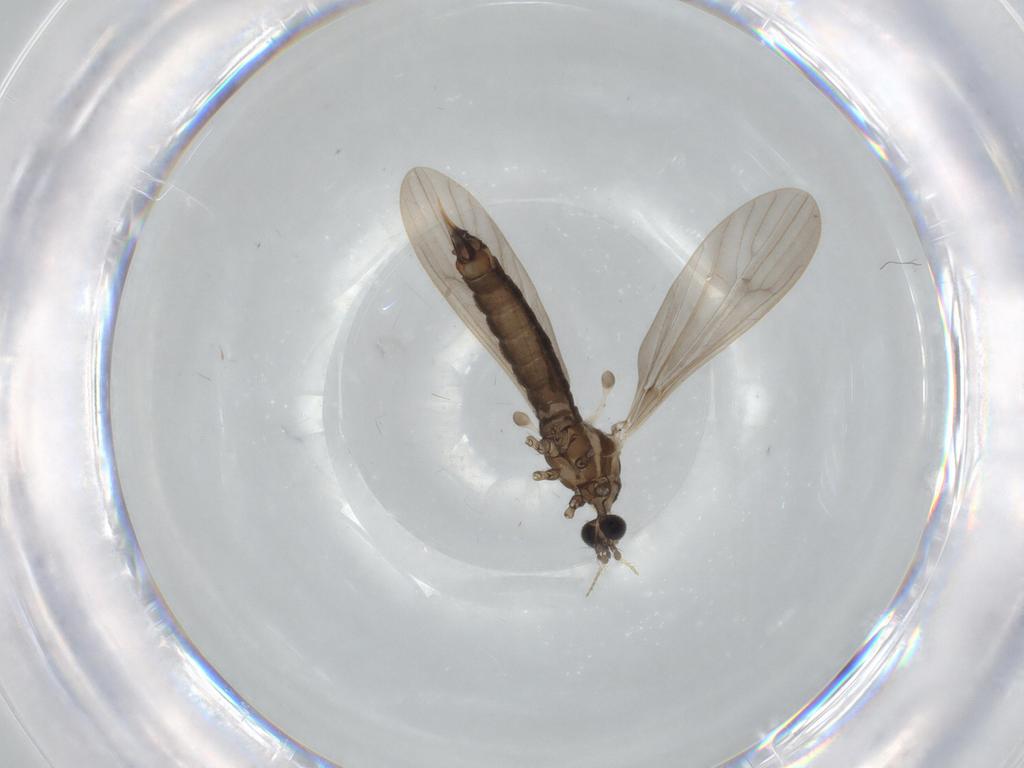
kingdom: Animalia
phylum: Arthropoda
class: Insecta
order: Diptera
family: Limoniidae
